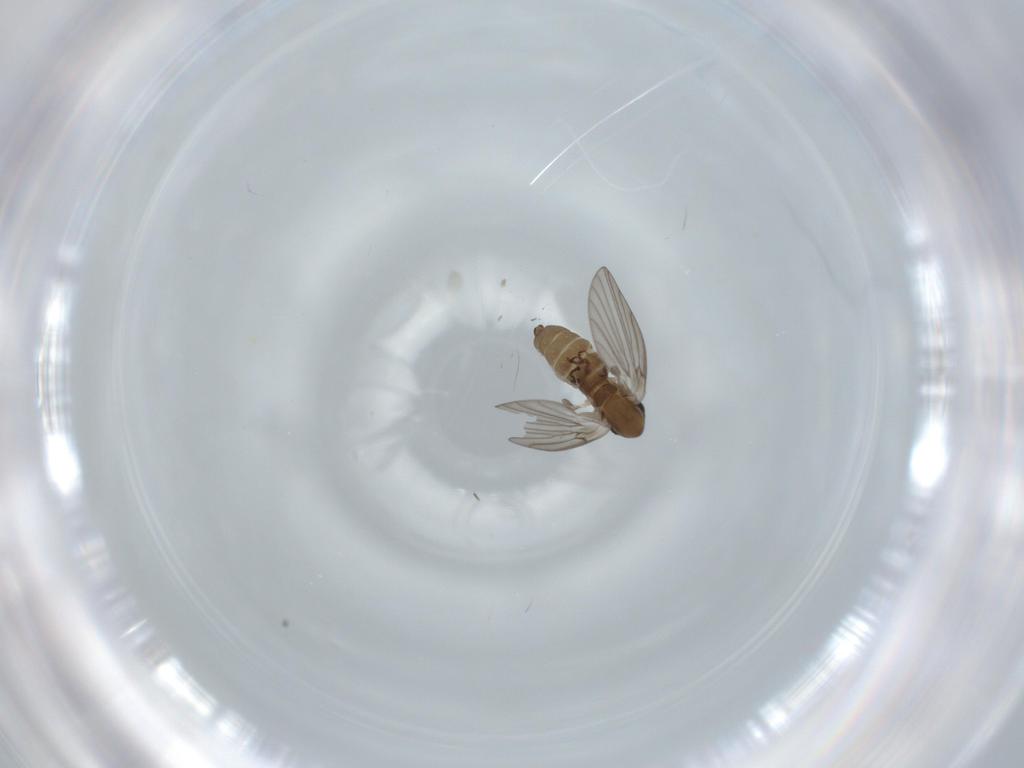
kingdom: Animalia
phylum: Arthropoda
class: Insecta
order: Diptera
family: Psychodidae
